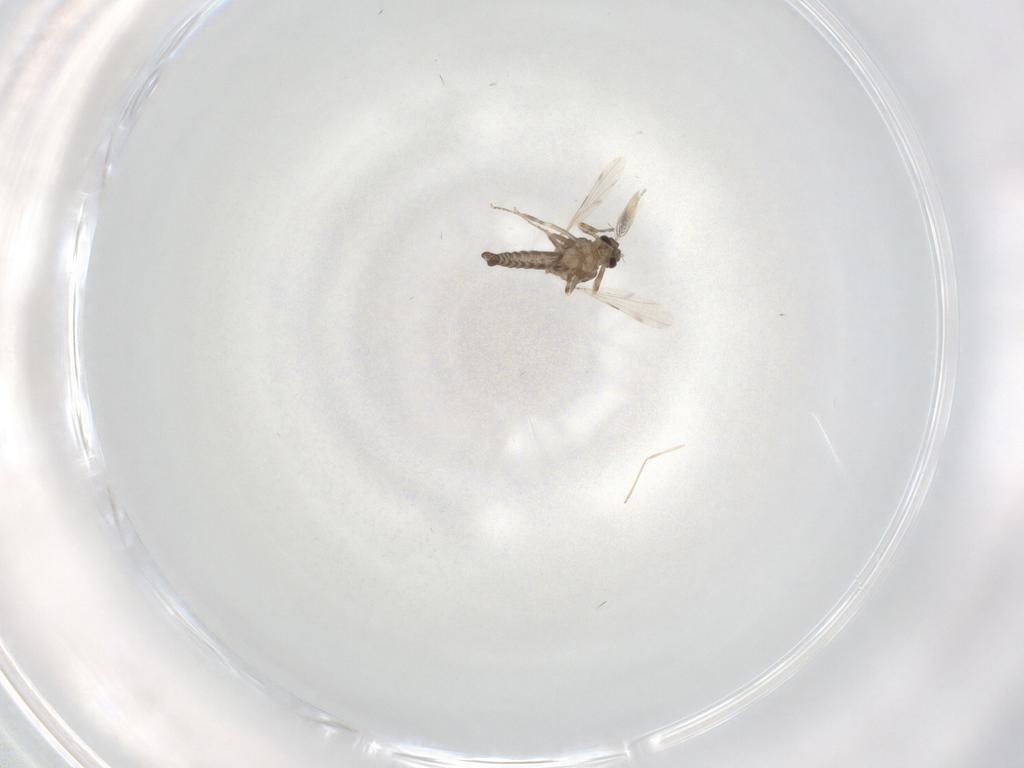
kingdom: Animalia
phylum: Arthropoda
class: Insecta
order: Diptera
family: Ceratopogonidae
